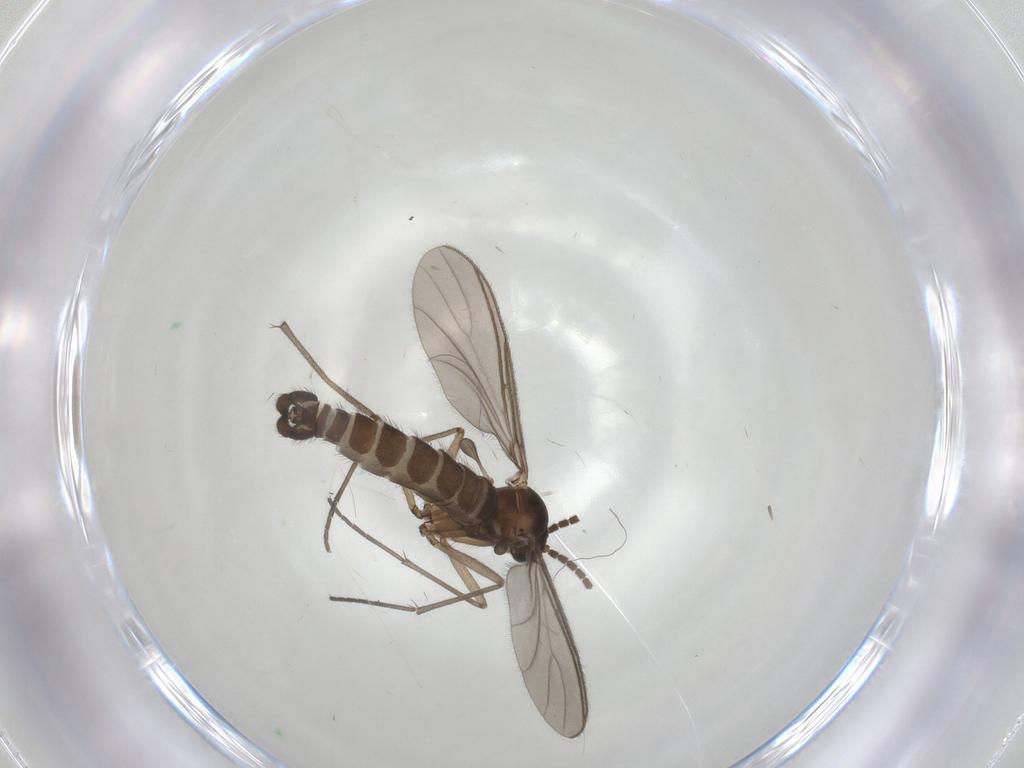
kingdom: Animalia
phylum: Arthropoda
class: Insecta
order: Diptera
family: Sciaridae
